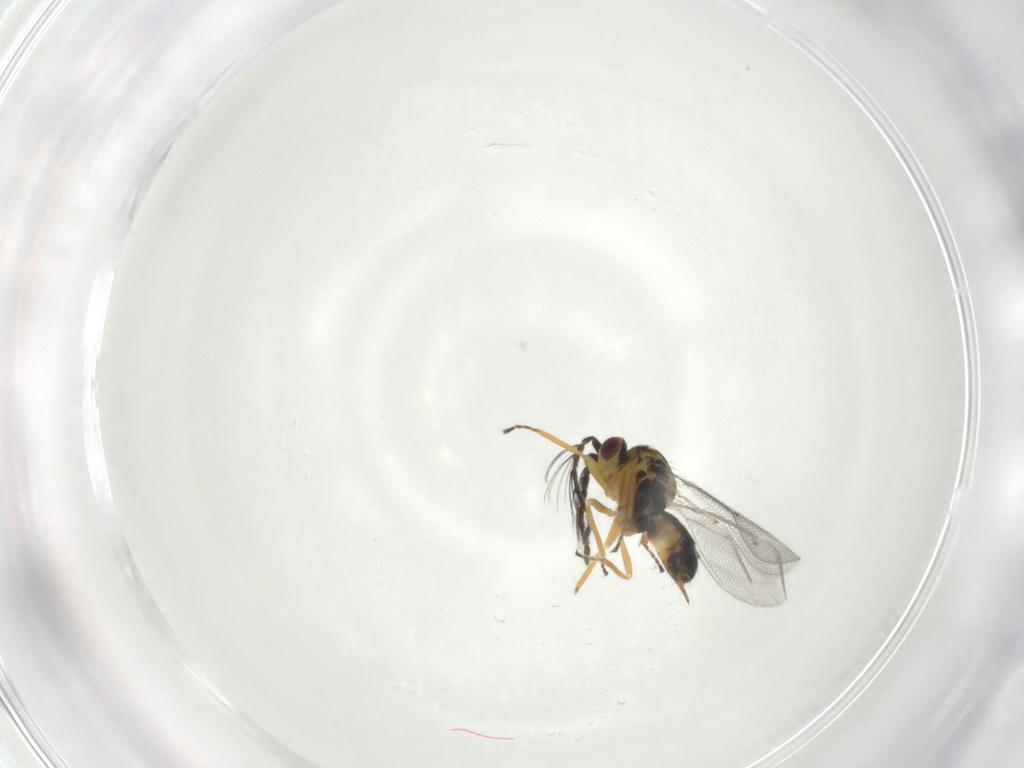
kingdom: Animalia
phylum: Arthropoda
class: Insecta
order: Hymenoptera
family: Eulophidae
